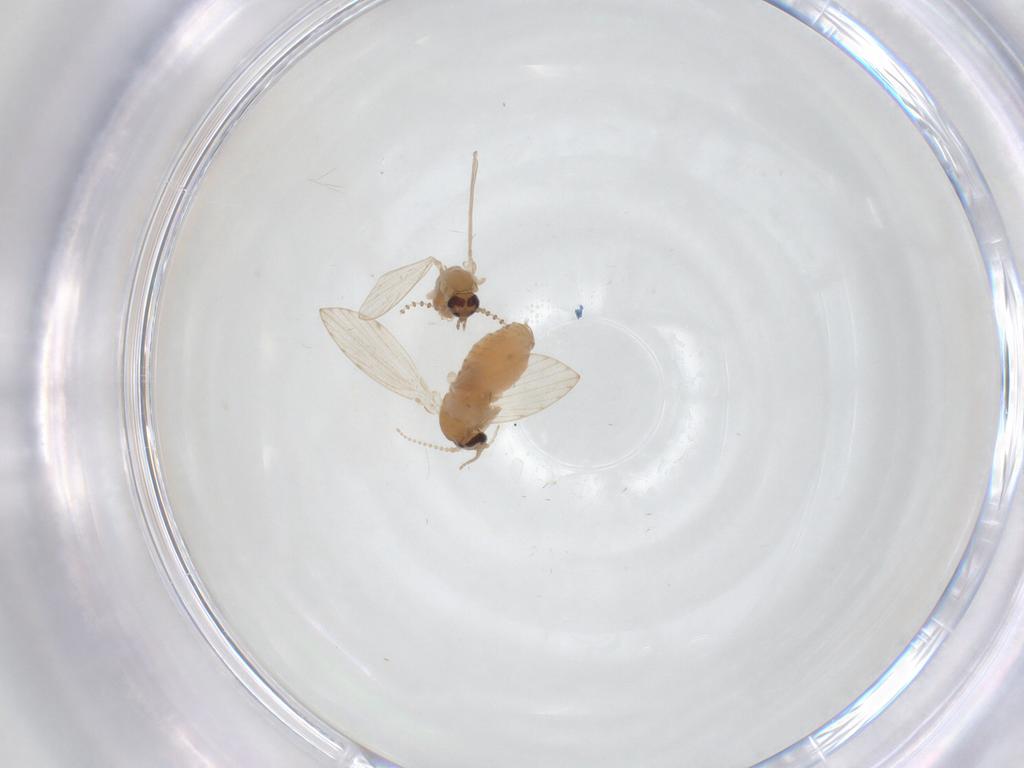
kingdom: Animalia
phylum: Arthropoda
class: Insecta
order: Diptera
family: Psychodidae
